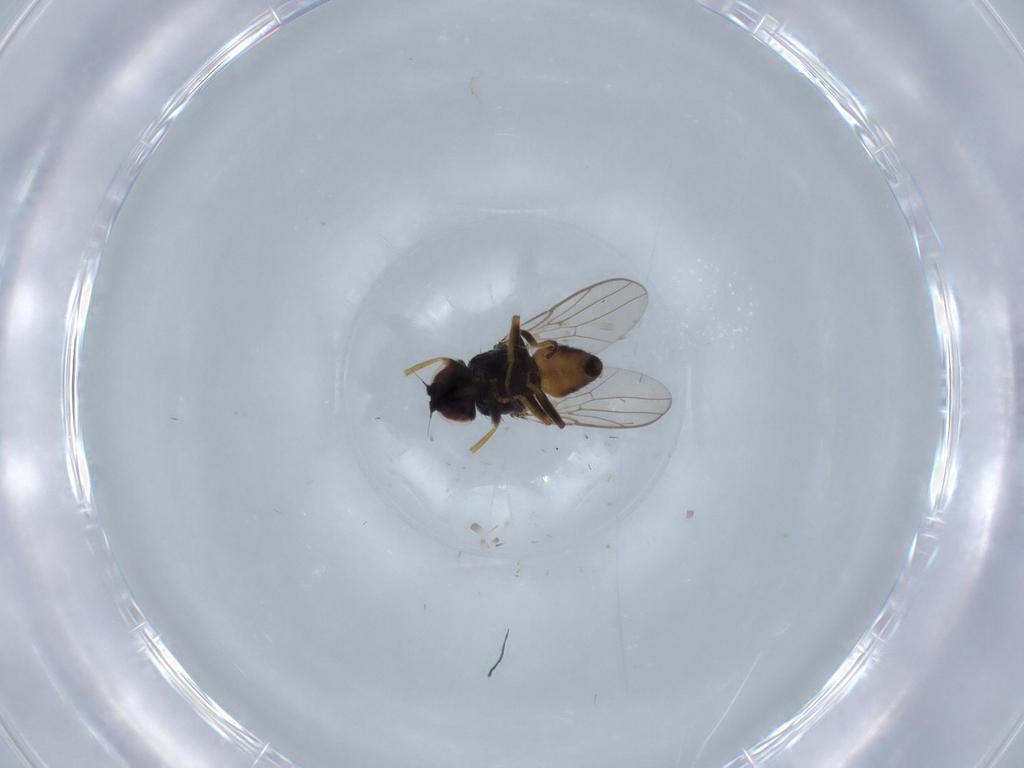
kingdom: Animalia
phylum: Arthropoda
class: Insecta
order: Diptera
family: Chloropidae
